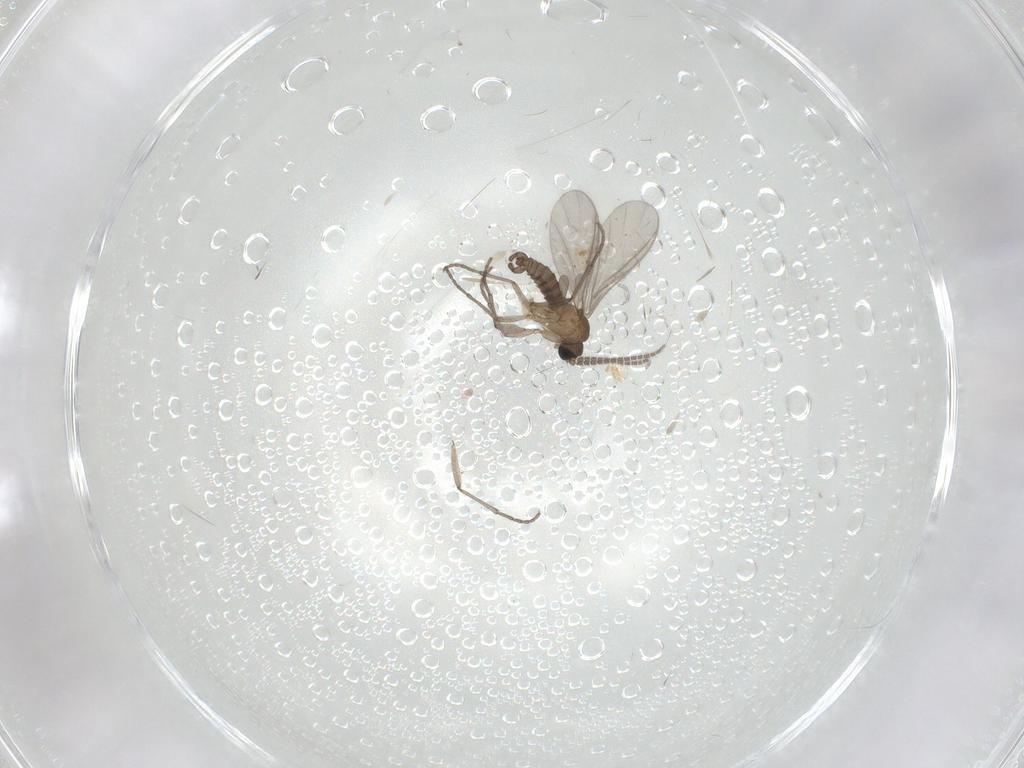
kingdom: Animalia
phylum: Arthropoda
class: Insecta
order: Diptera
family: Sciaridae
